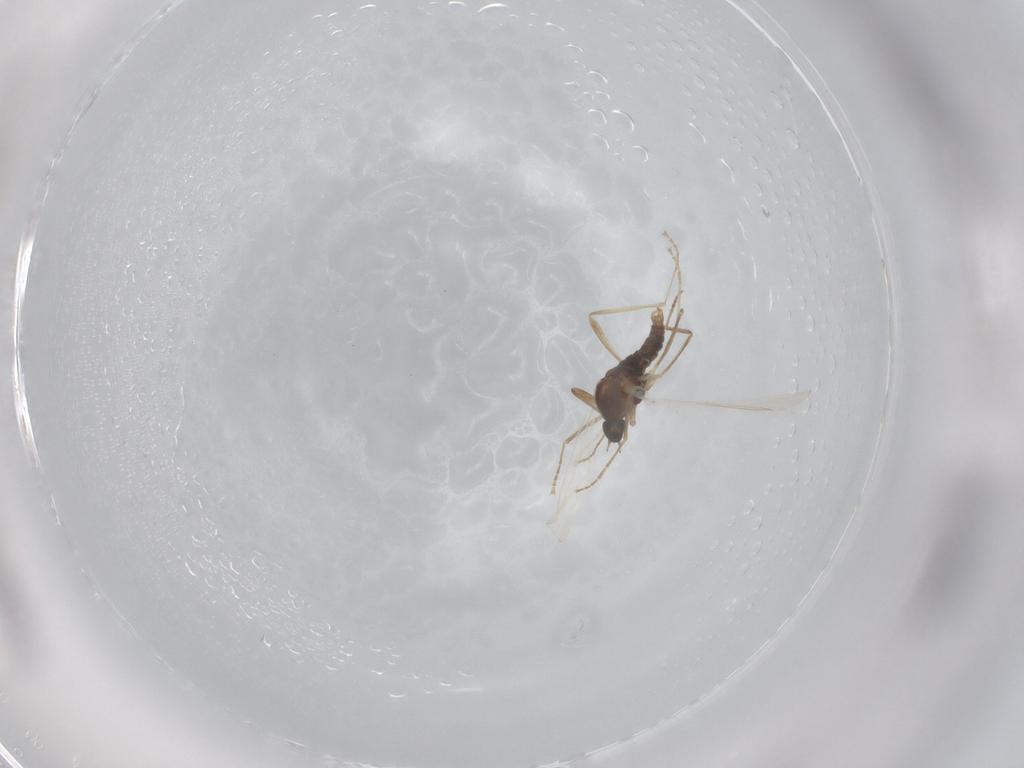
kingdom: Animalia
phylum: Arthropoda
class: Insecta
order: Diptera
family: Cecidomyiidae
